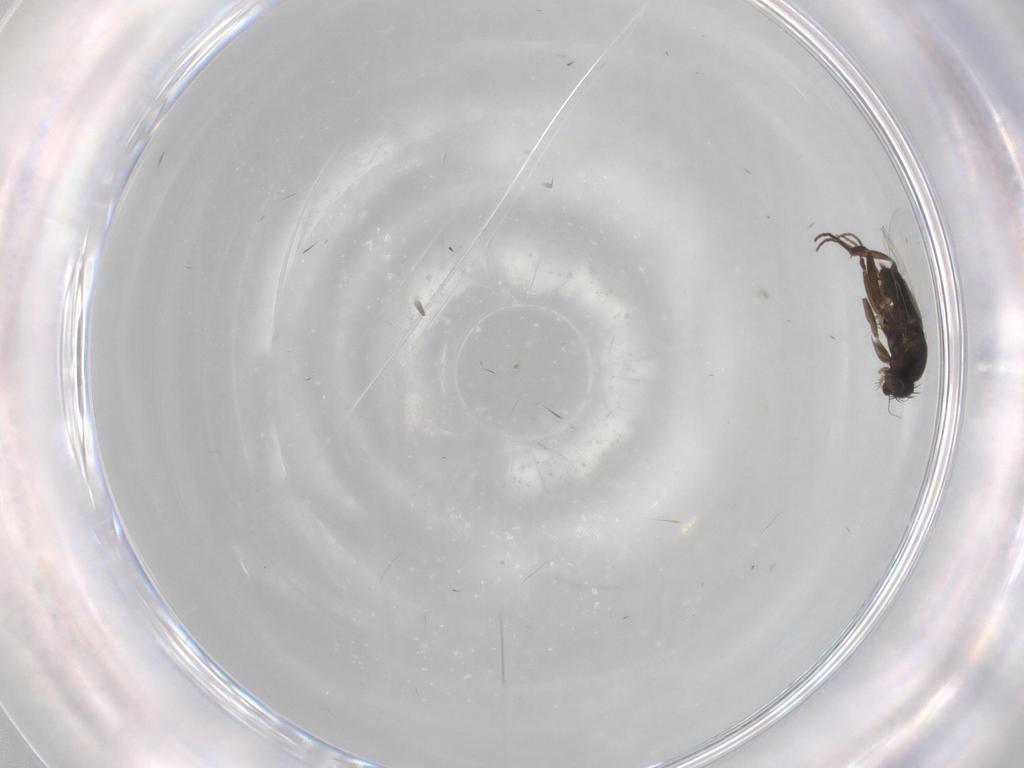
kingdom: Animalia
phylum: Arthropoda
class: Insecta
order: Diptera
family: Phoridae
